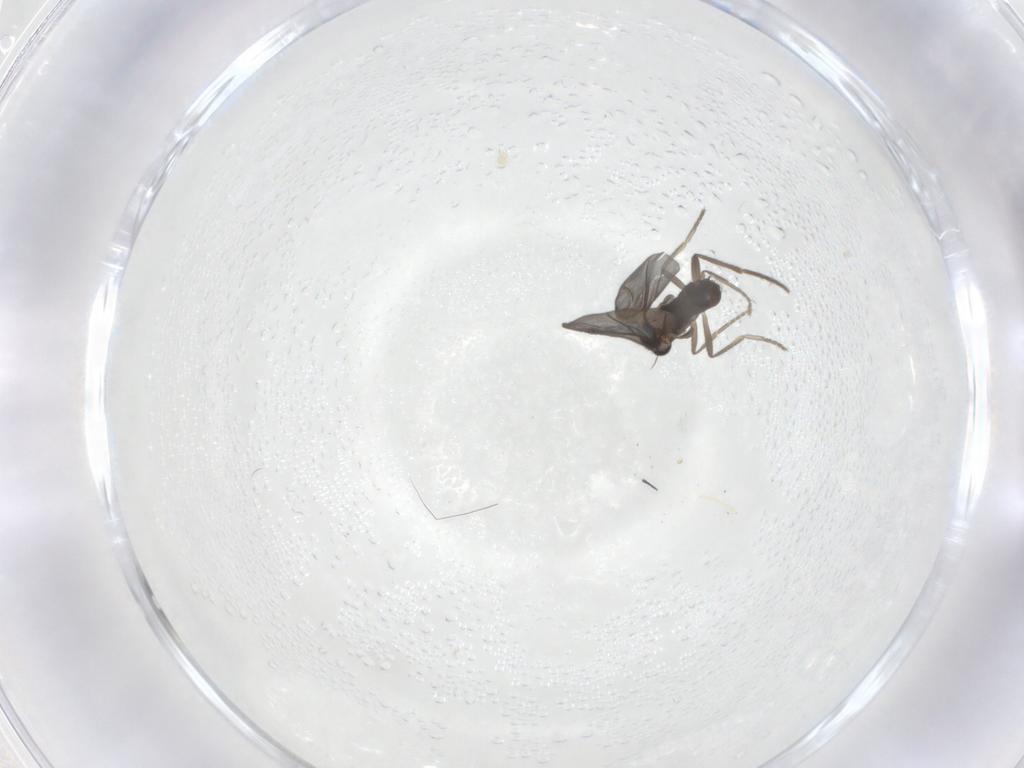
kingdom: Animalia
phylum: Arthropoda
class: Insecta
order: Diptera
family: Phoridae
